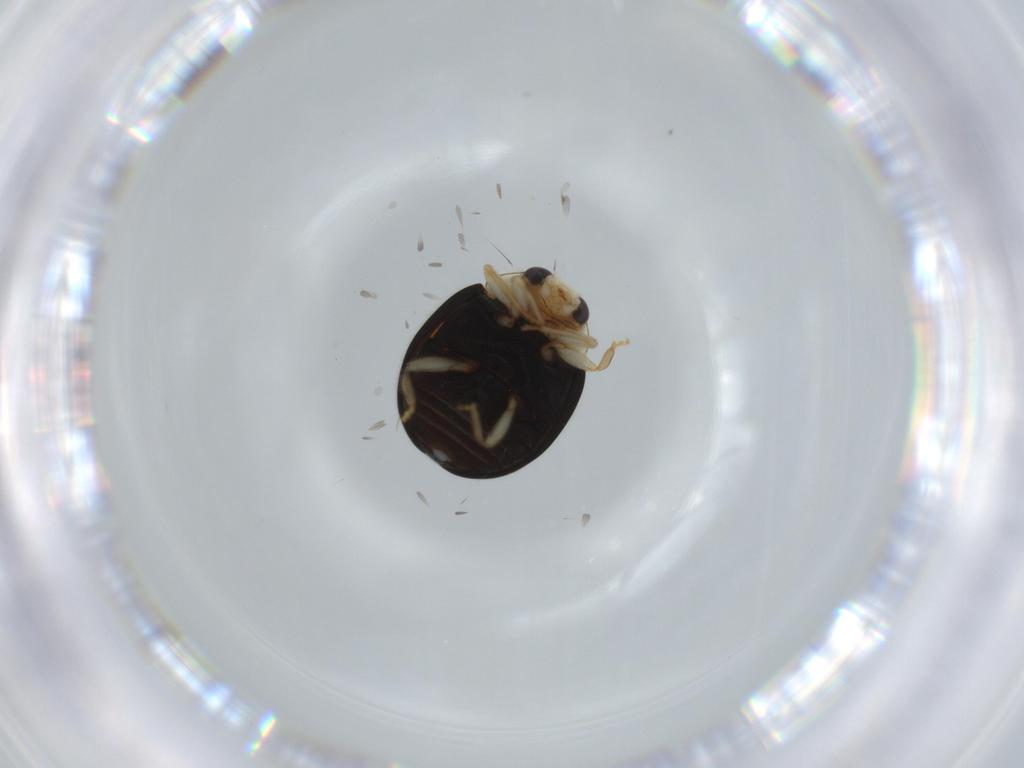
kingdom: Animalia
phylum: Arthropoda
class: Insecta
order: Coleoptera
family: Coccinellidae
